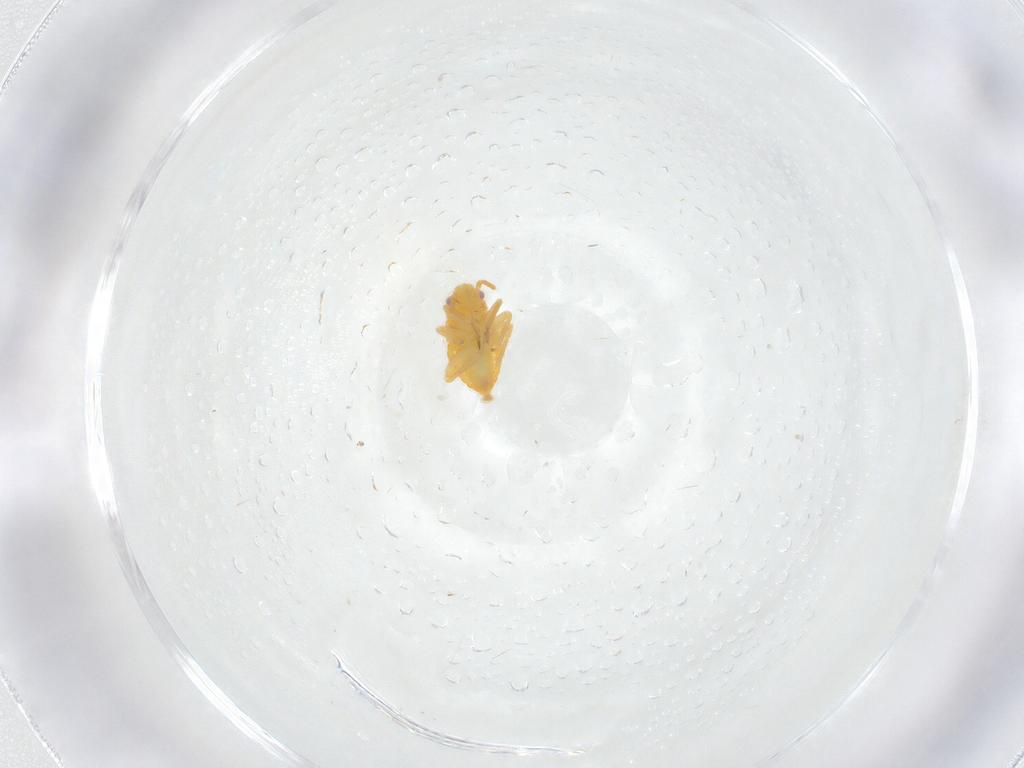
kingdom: Animalia
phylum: Arthropoda
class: Insecta
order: Hemiptera
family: Miridae
